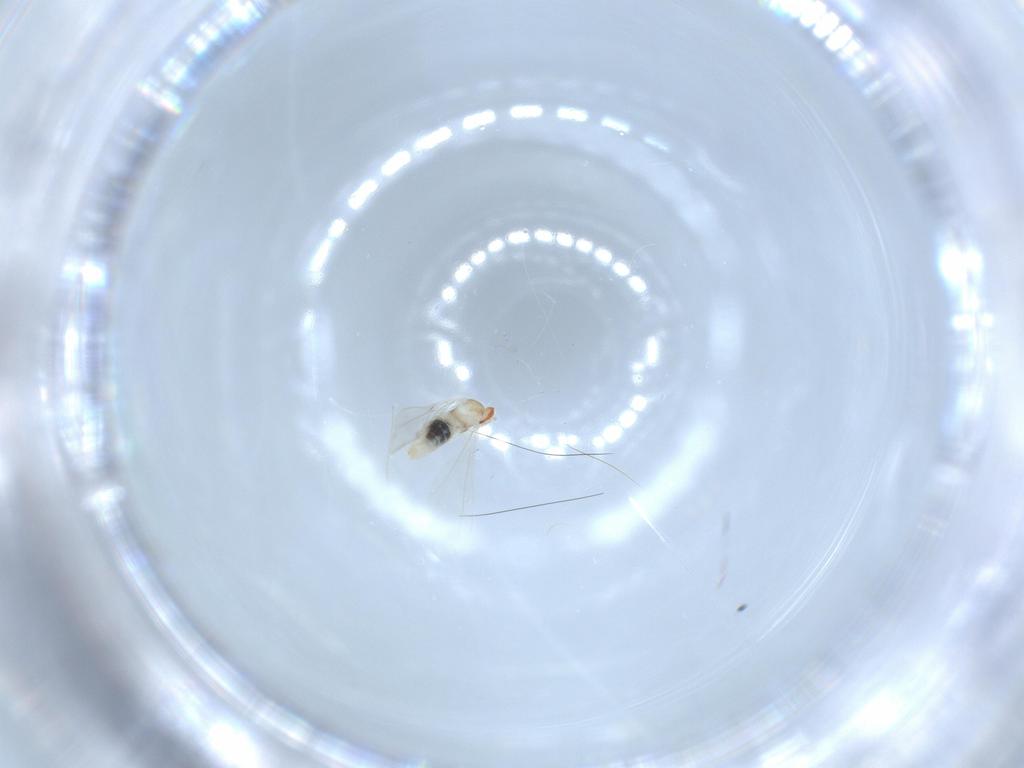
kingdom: Animalia
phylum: Arthropoda
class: Insecta
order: Diptera
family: Cecidomyiidae
